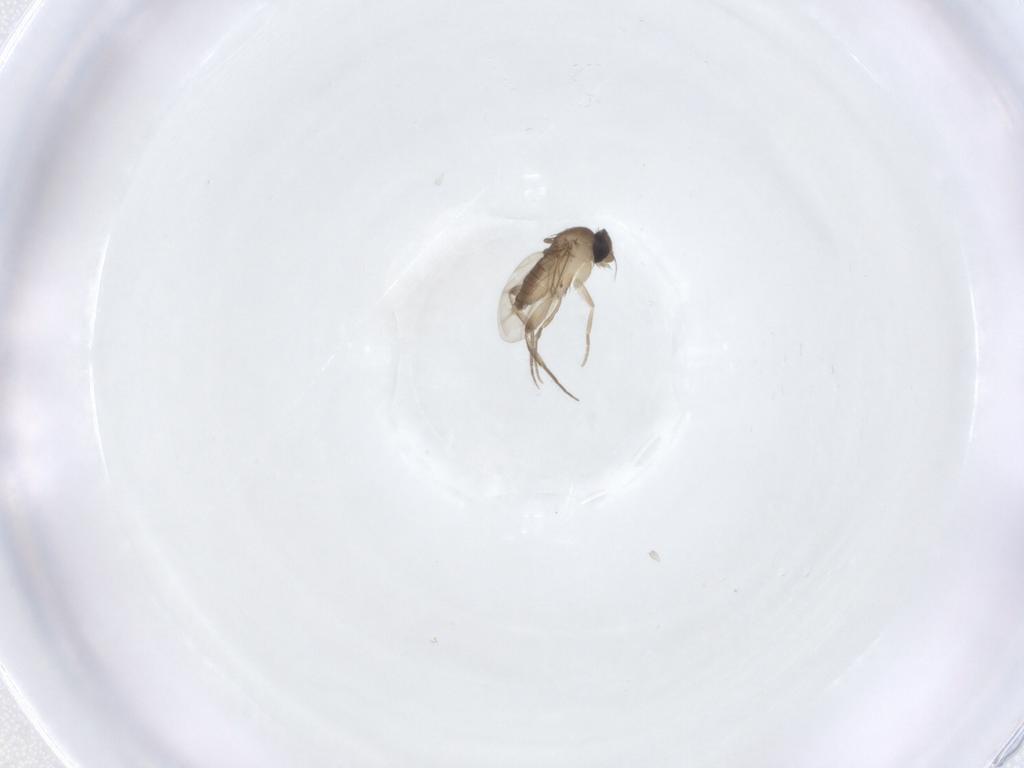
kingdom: Animalia
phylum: Arthropoda
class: Insecta
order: Diptera
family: Phoridae
